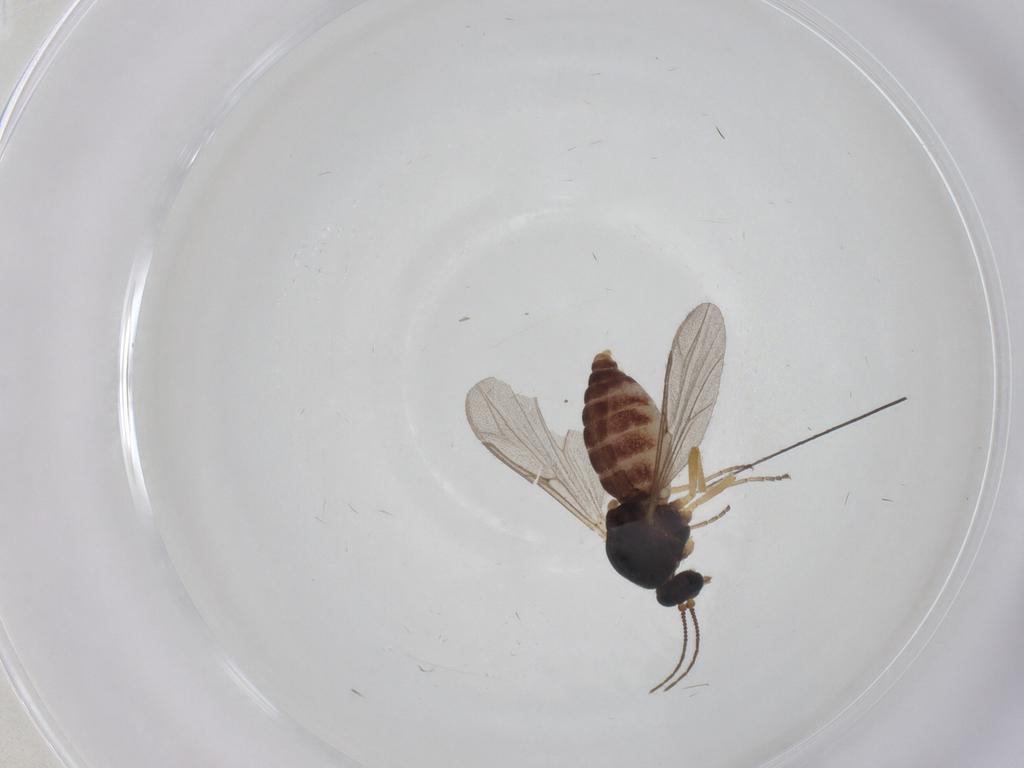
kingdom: Animalia
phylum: Arthropoda
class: Insecta
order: Diptera
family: Ceratopogonidae
